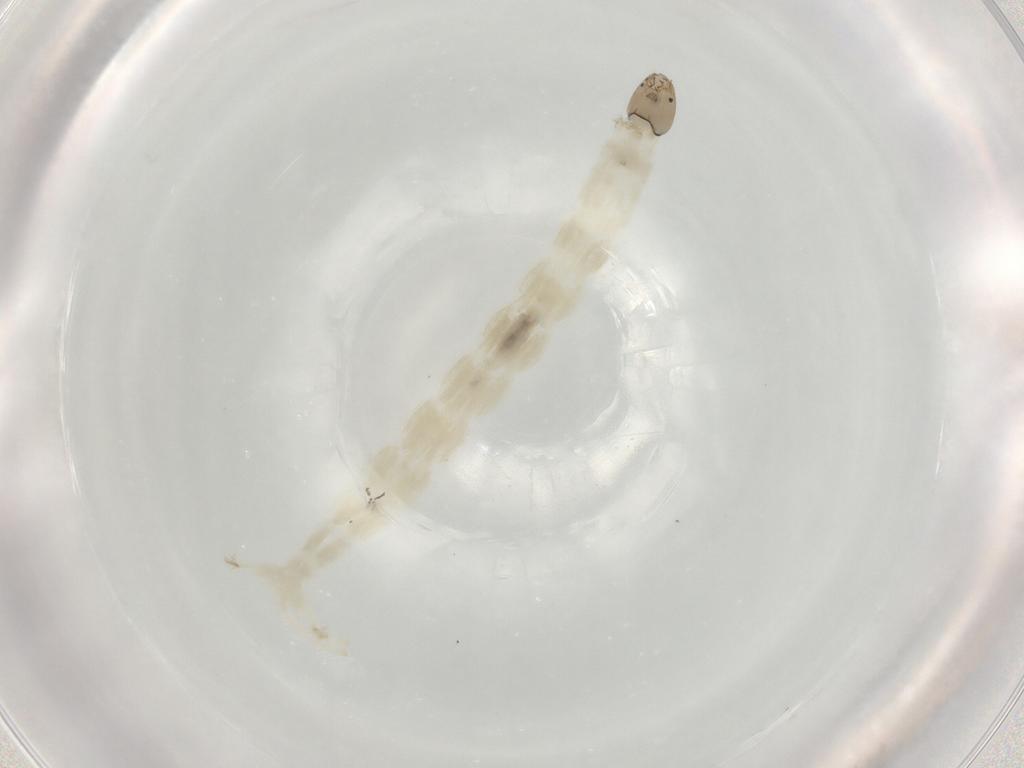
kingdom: Animalia
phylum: Arthropoda
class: Insecta
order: Diptera
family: Chironomidae
